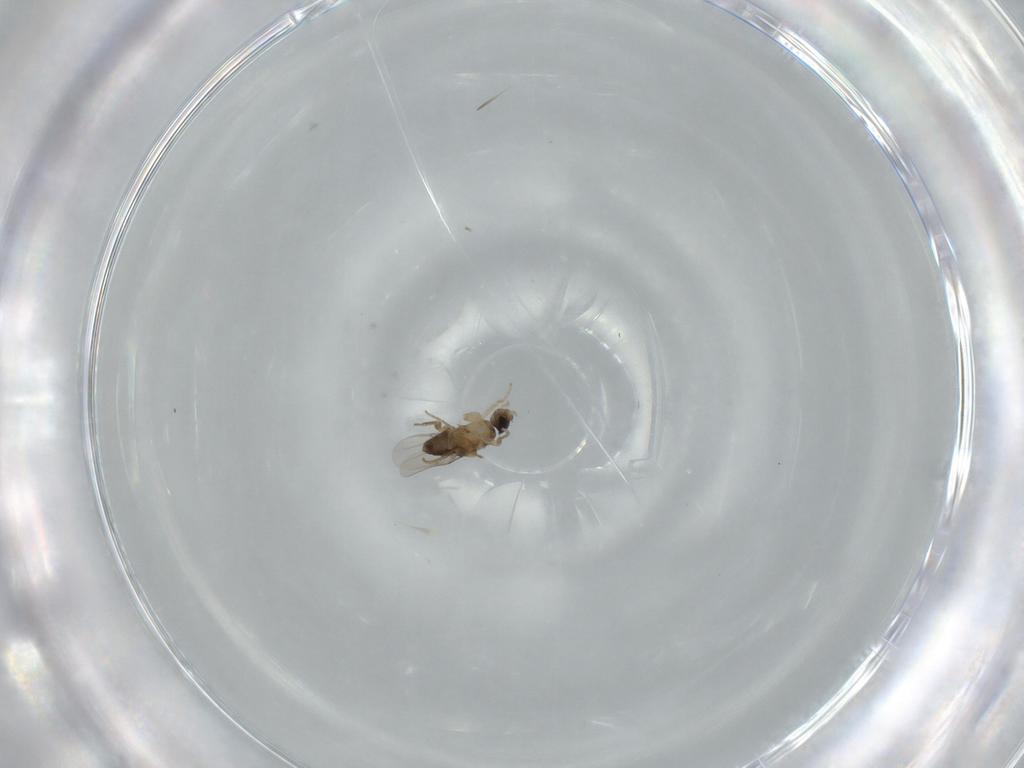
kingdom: Animalia
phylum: Arthropoda
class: Insecta
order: Diptera
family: Phoridae
